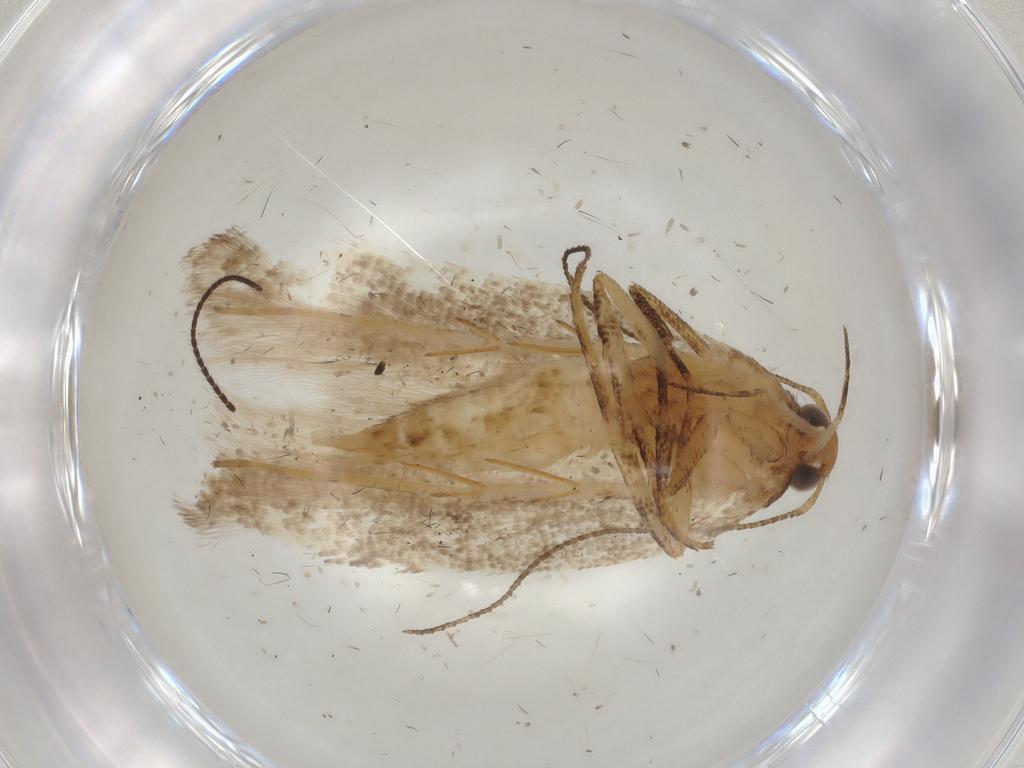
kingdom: Animalia
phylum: Arthropoda
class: Insecta
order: Lepidoptera
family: Gelechiidae
